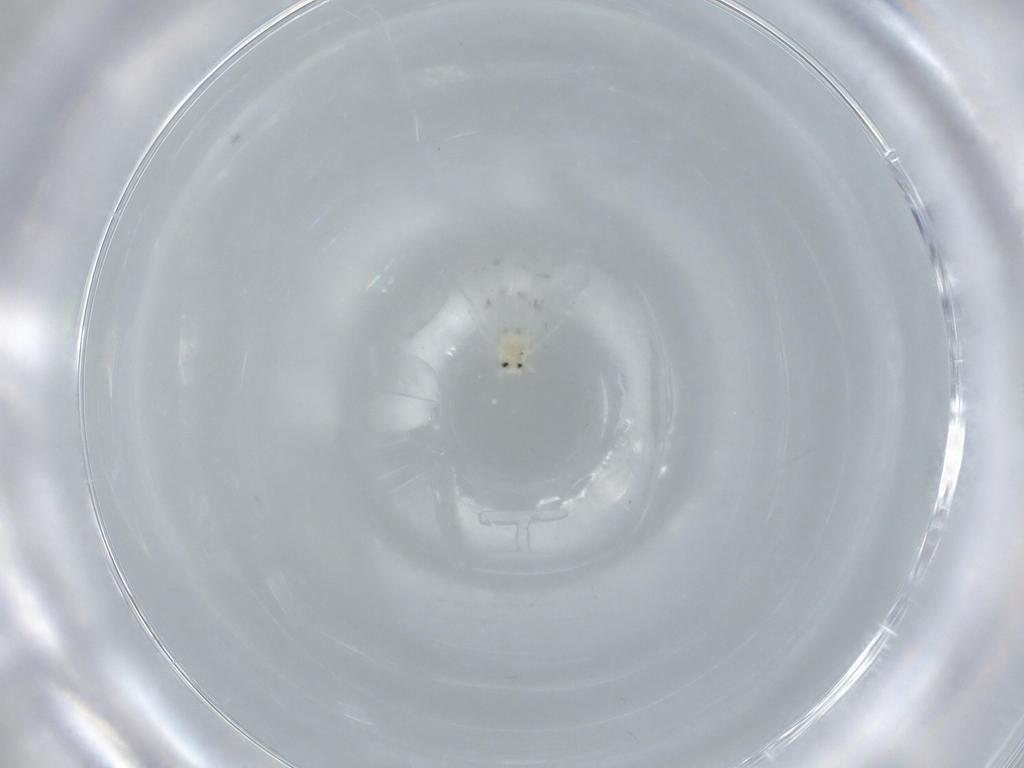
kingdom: Animalia
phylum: Arthropoda
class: Insecta
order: Hemiptera
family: Aleyrodidae
